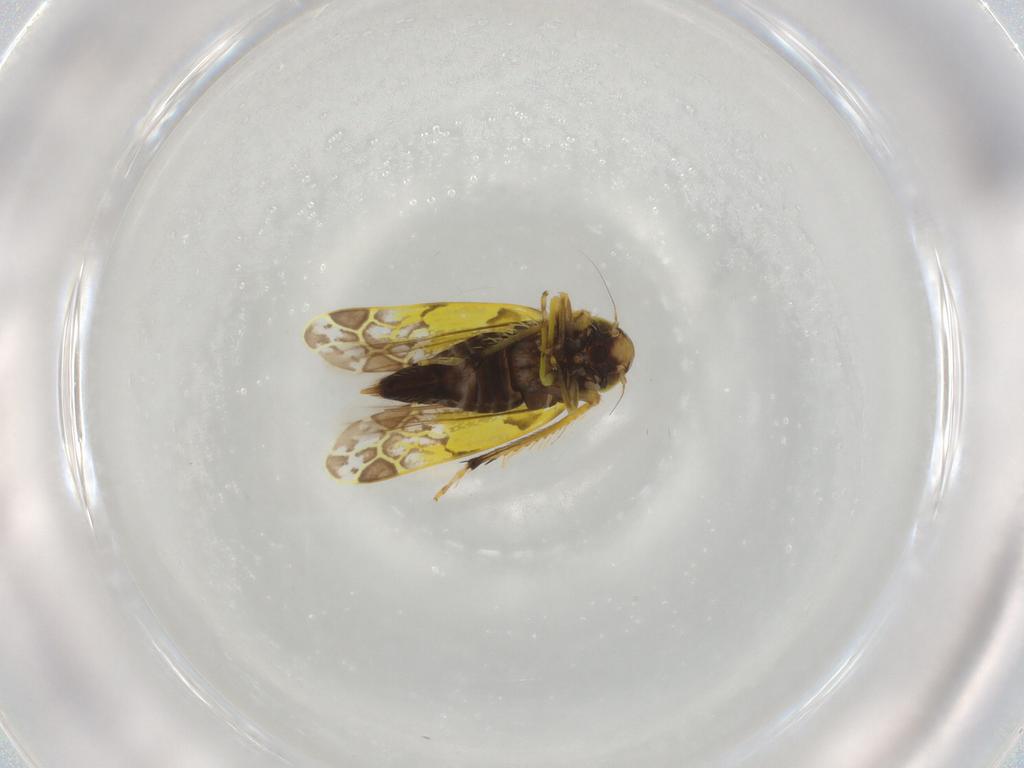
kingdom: Animalia
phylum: Arthropoda
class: Insecta
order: Hemiptera
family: Cicadellidae
